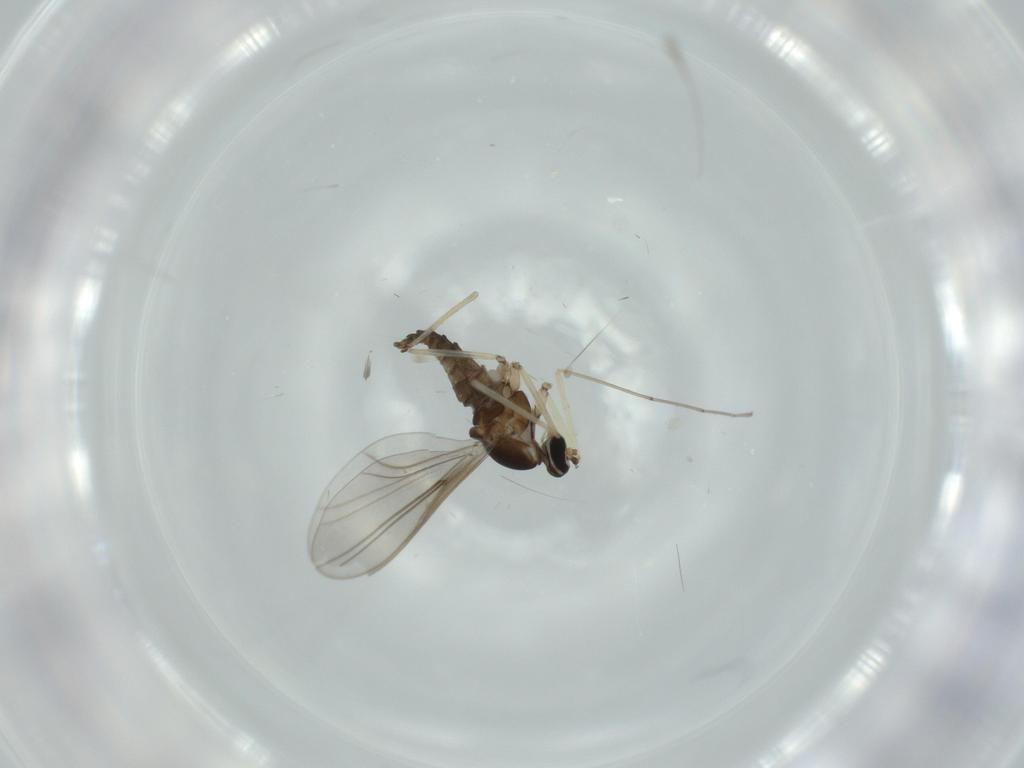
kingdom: Animalia
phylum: Arthropoda
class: Insecta
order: Diptera
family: Cecidomyiidae
